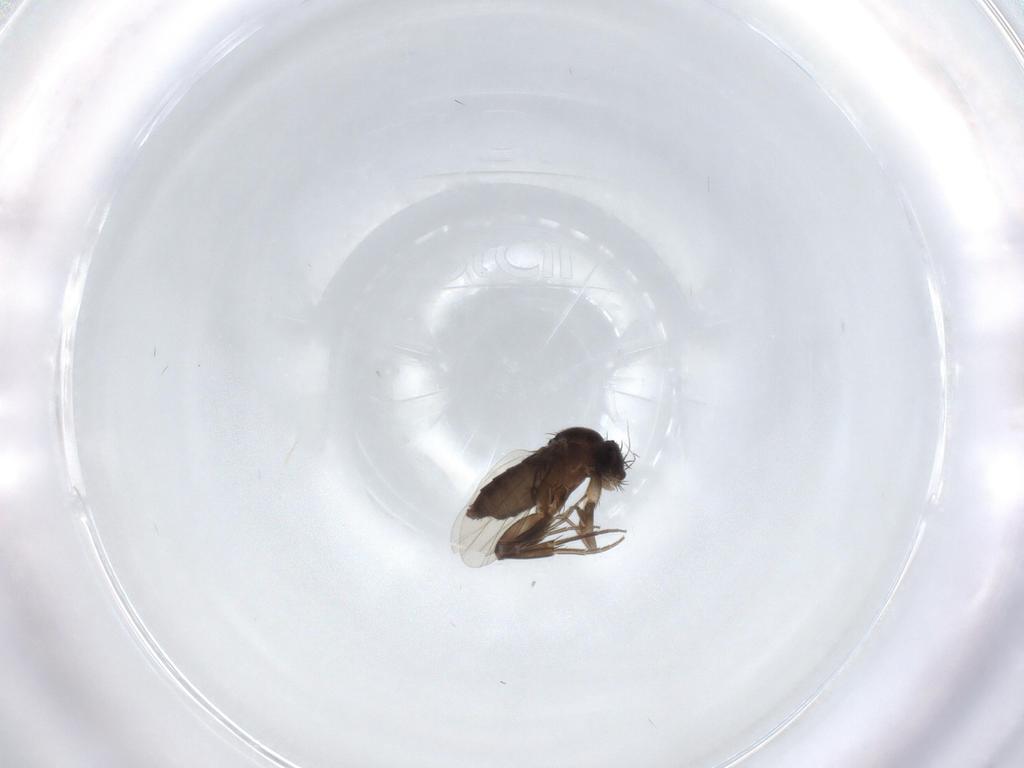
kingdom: Animalia
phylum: Arthropoda
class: Insecta
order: Diptera
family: Phoridae
